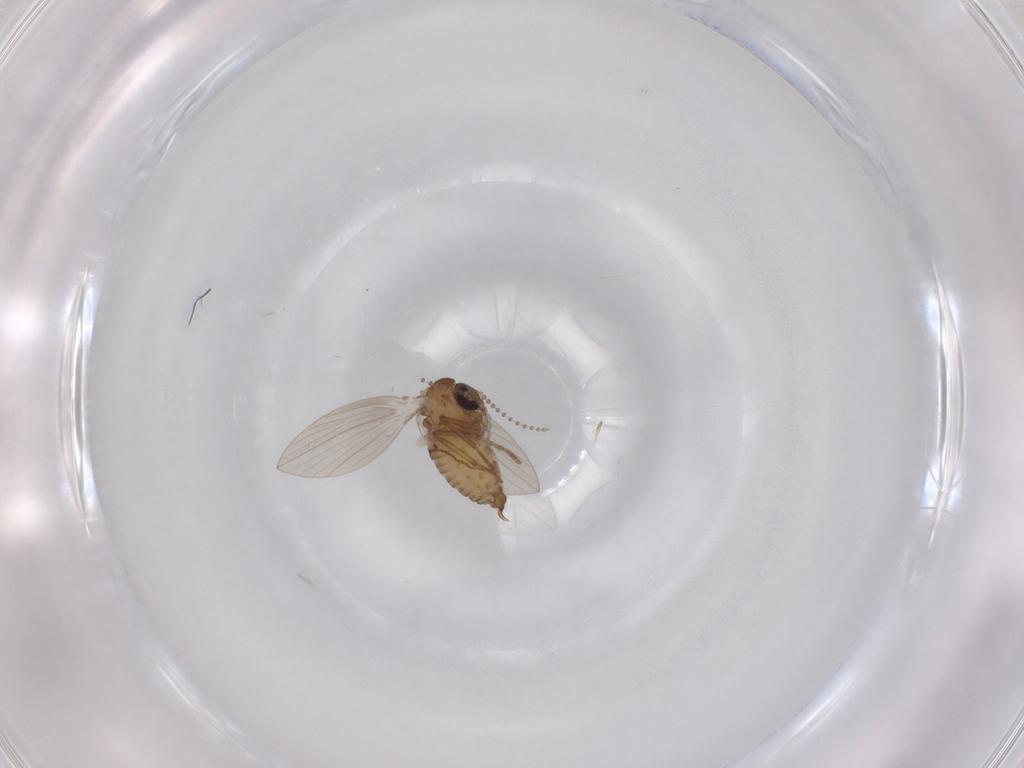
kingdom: Animalia
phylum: Arthropoda
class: Insecta
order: Diptera
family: Psychodidae
